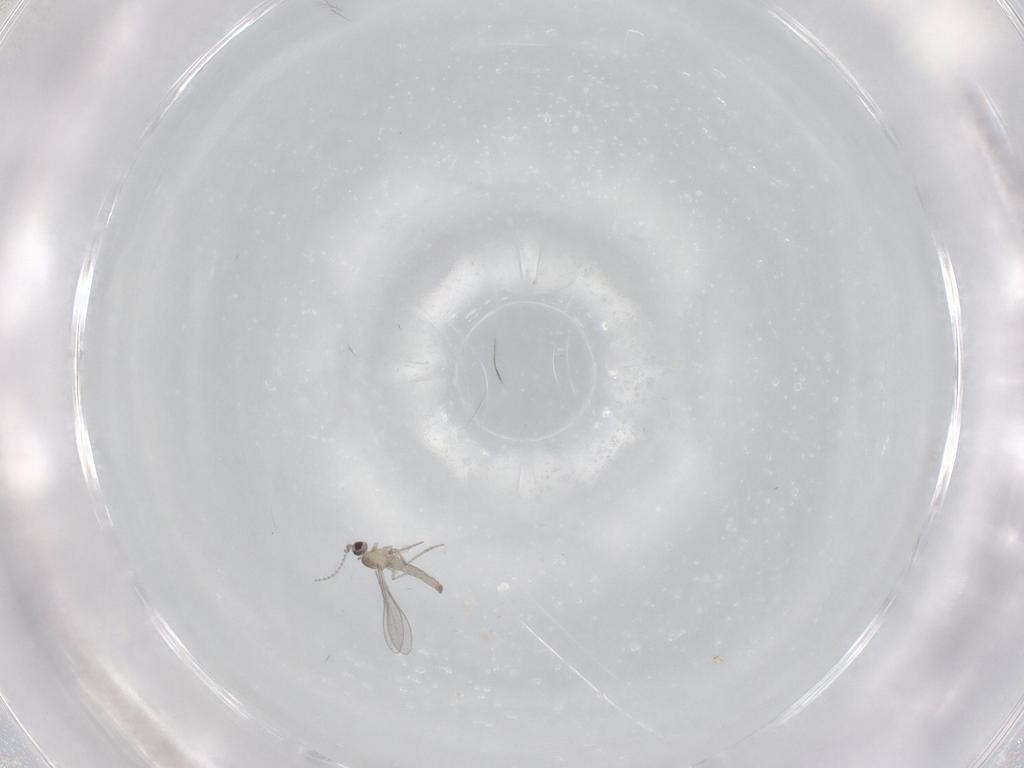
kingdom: Animalia
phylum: Arthropoda
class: Insecta
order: Diptera
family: Cecidomyiidae
